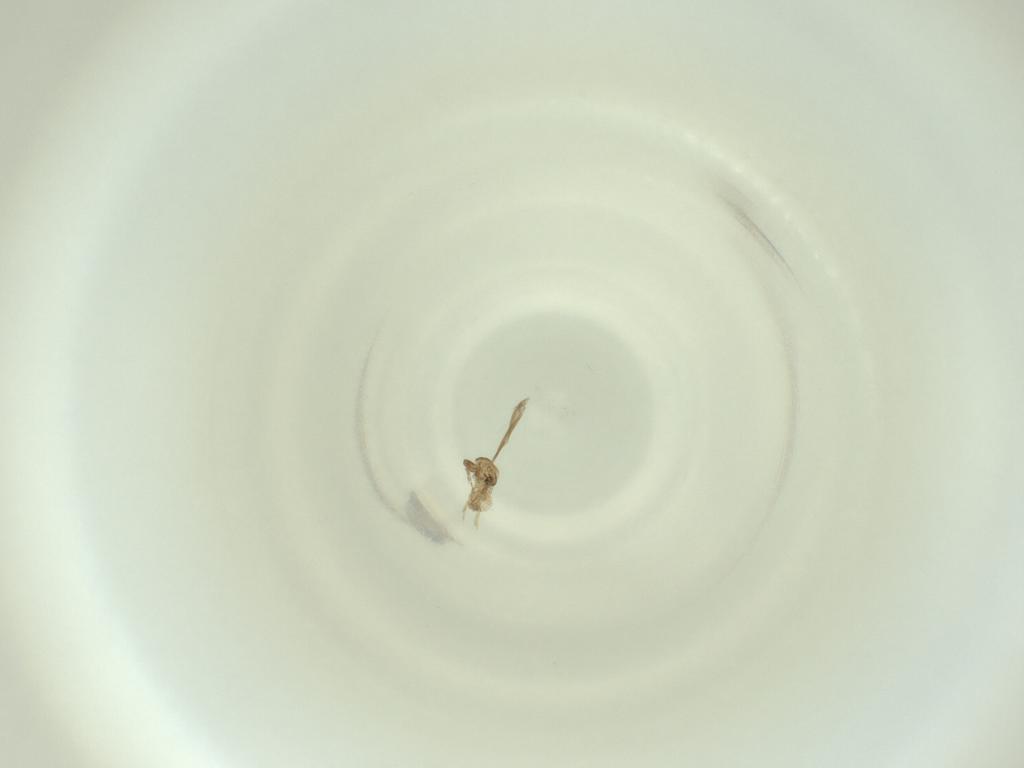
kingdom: Animalia
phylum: Arthropoda
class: Insecta
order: Diptera
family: Cecidomyiidae
